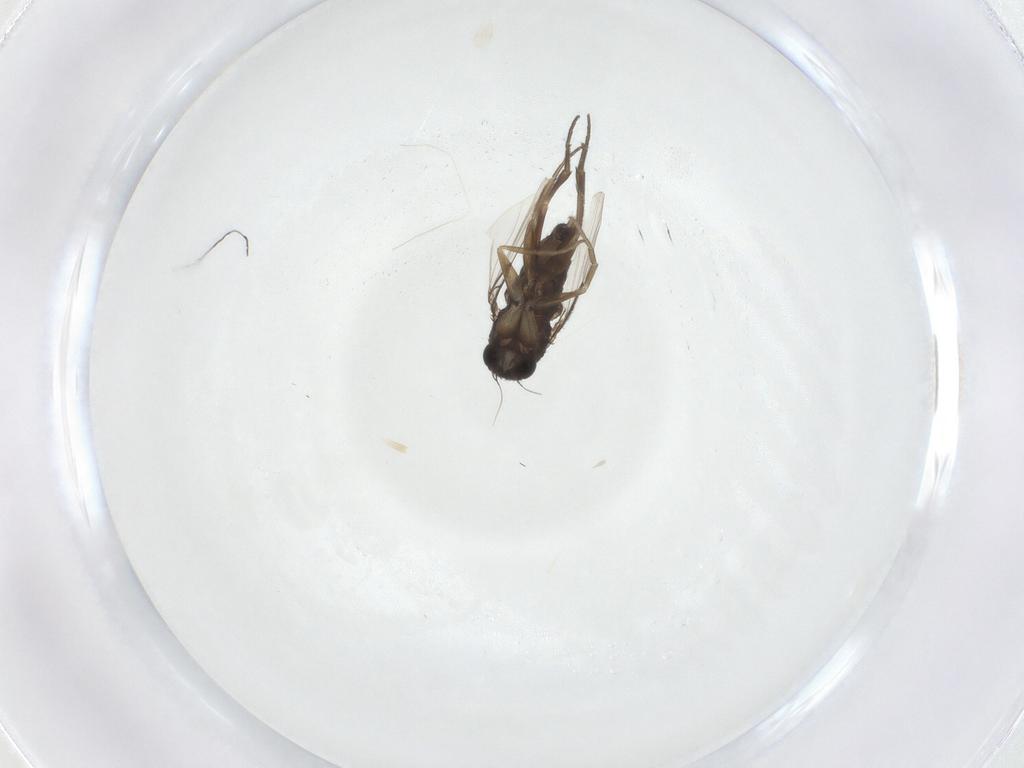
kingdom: Animalia
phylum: Arthropoda
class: Insecta
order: Diptera
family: Phoridae
